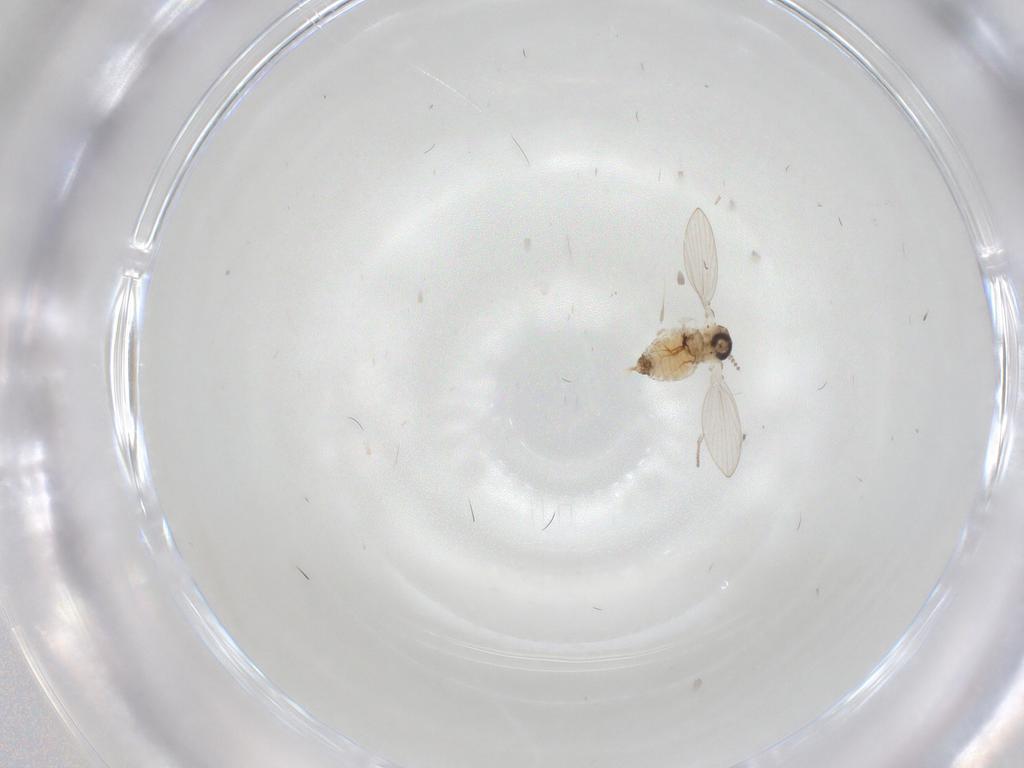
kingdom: Animalia
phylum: Arthropoda
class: Insecta
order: Diptera
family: Psychodidae
